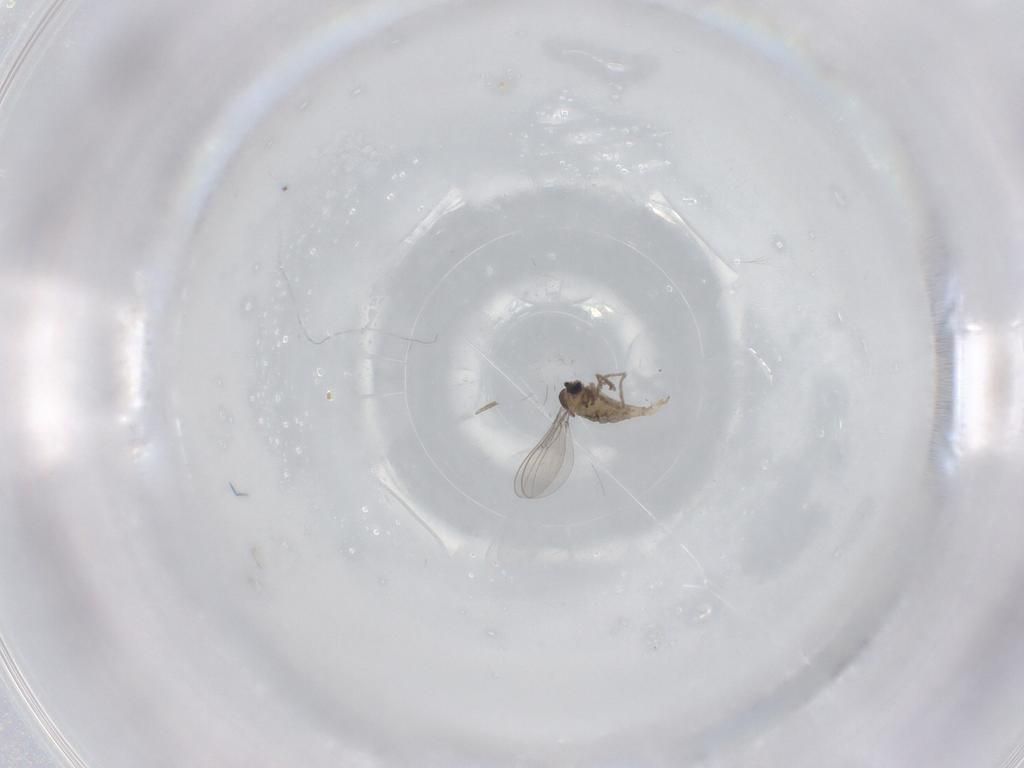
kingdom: Animalia
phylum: Arthropoda
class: Insecta
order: Diptera
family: Cecidomyiidae
